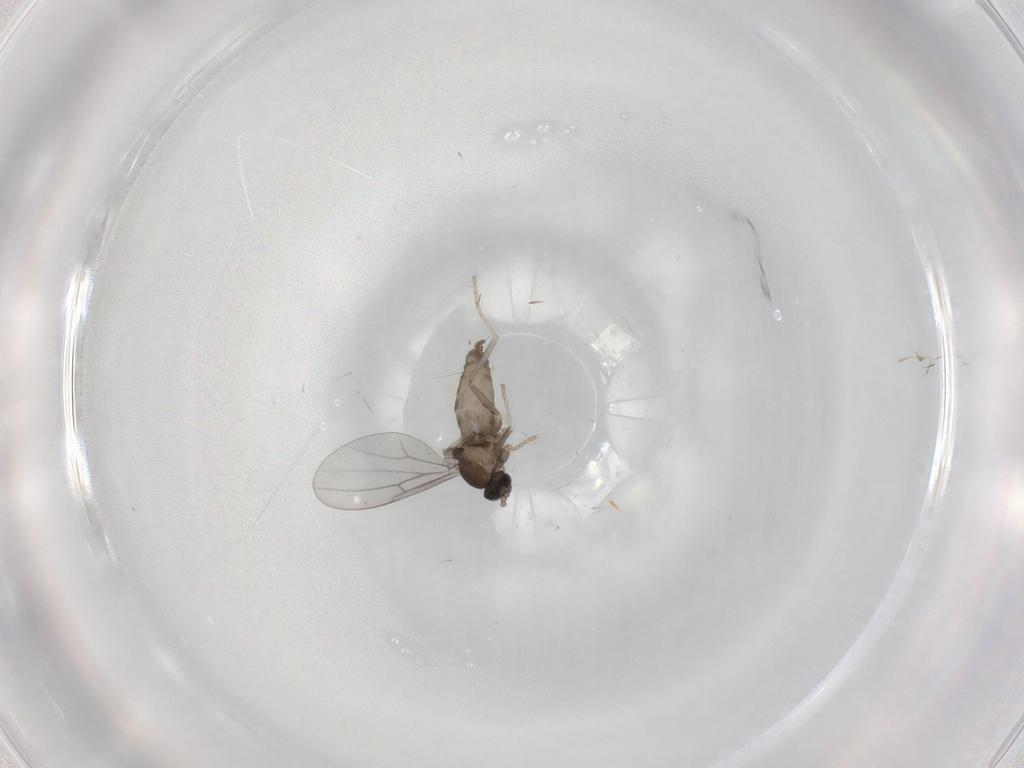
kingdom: Animalia
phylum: Arthropoda
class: Insecta
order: Diptera
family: Cecidomyiidae
